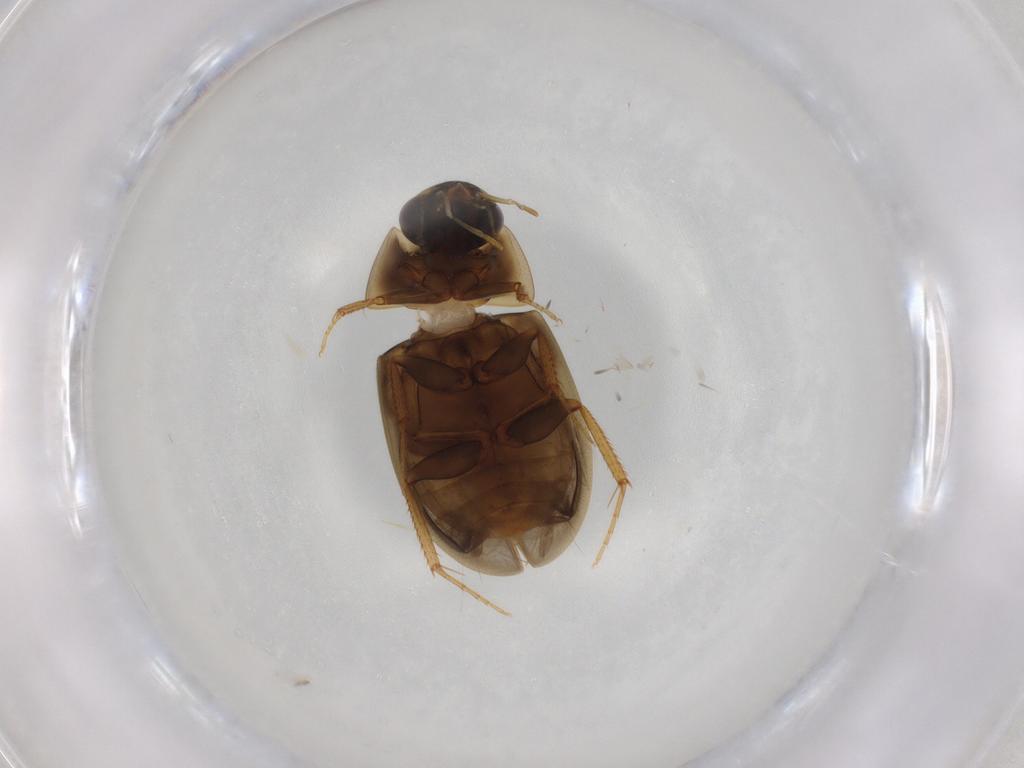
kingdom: Animalia
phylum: Arthropoda
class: Insecta
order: Coleoptera
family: Hydrophilidae
